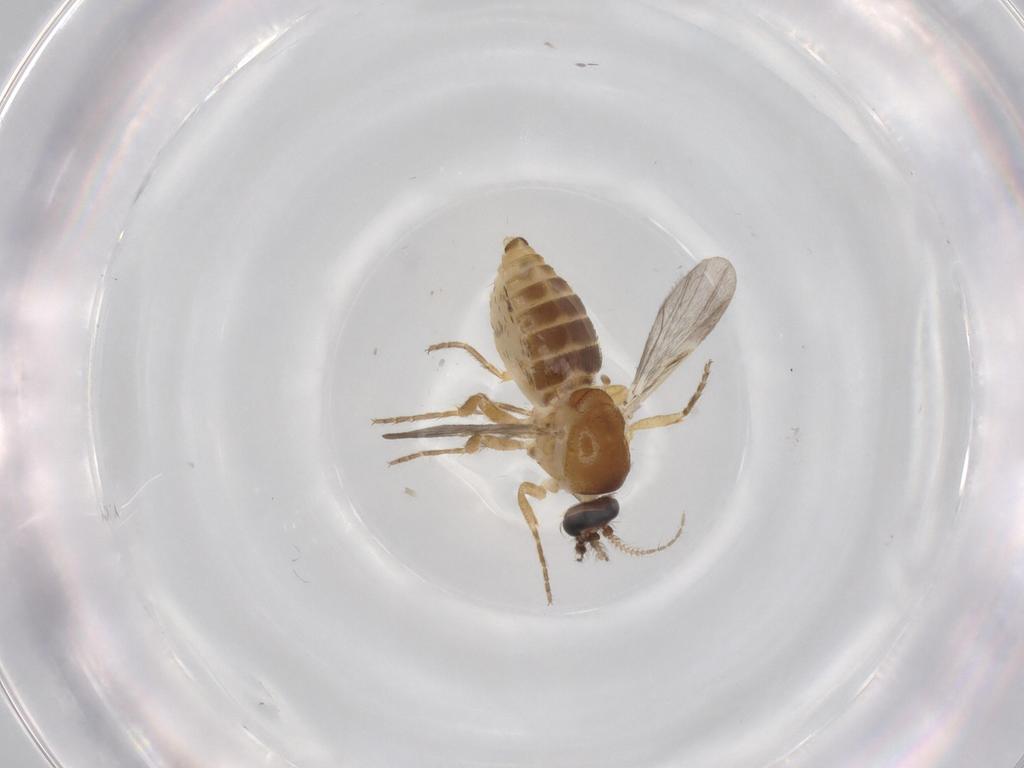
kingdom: Animalia
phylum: Arthropoda
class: Insecta
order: Diptera
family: Ceratopogonidae
